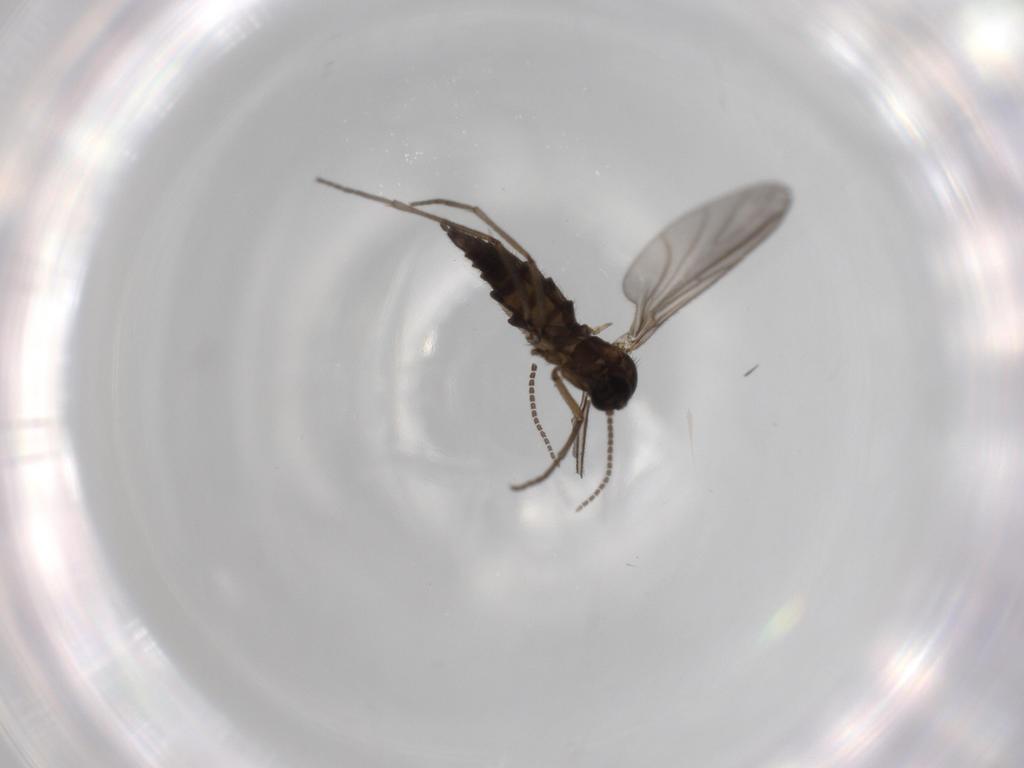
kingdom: Animalia
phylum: Arthropoda
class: Insecta
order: Diptera
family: Sciaridae
